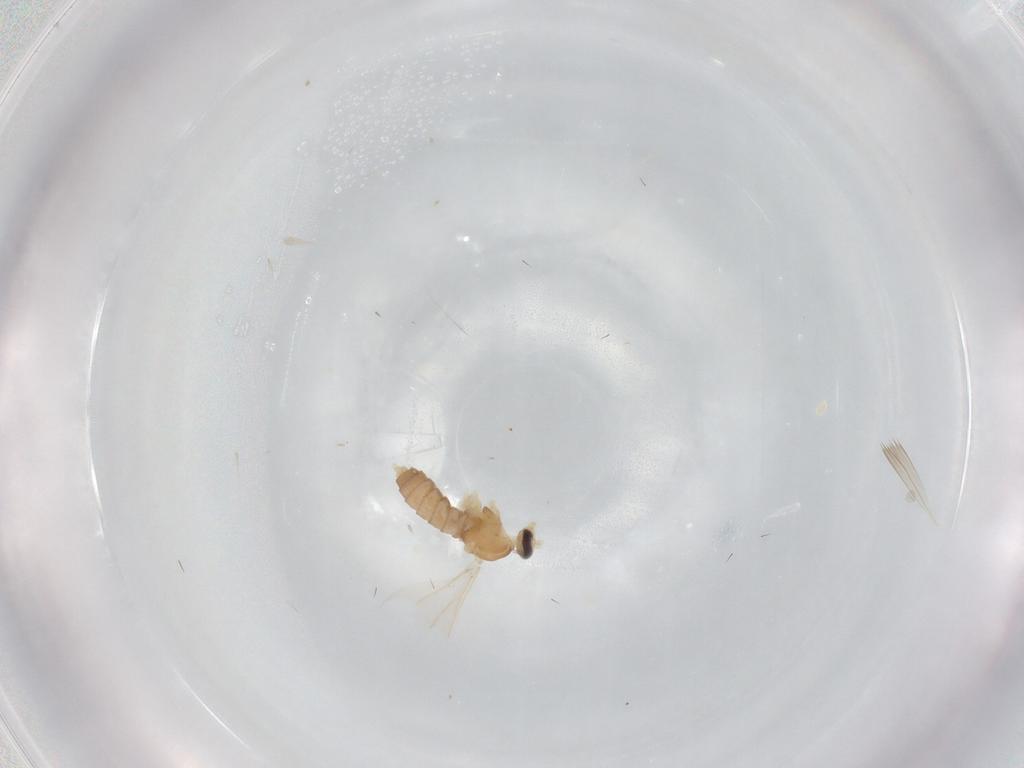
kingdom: Animalia
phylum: Arthropoda
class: Insecta
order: Diptera
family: Cecidomyiidae
